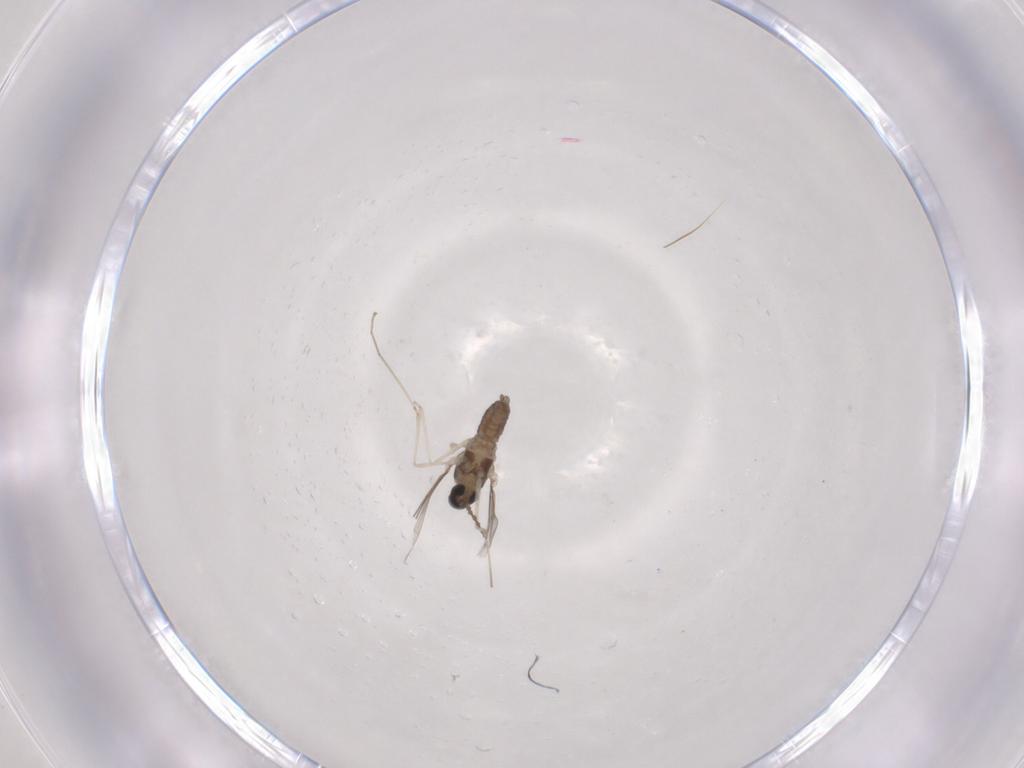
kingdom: Animalia
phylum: Arthropoda
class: Insecta
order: Diptera
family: Cecidomyiidae
